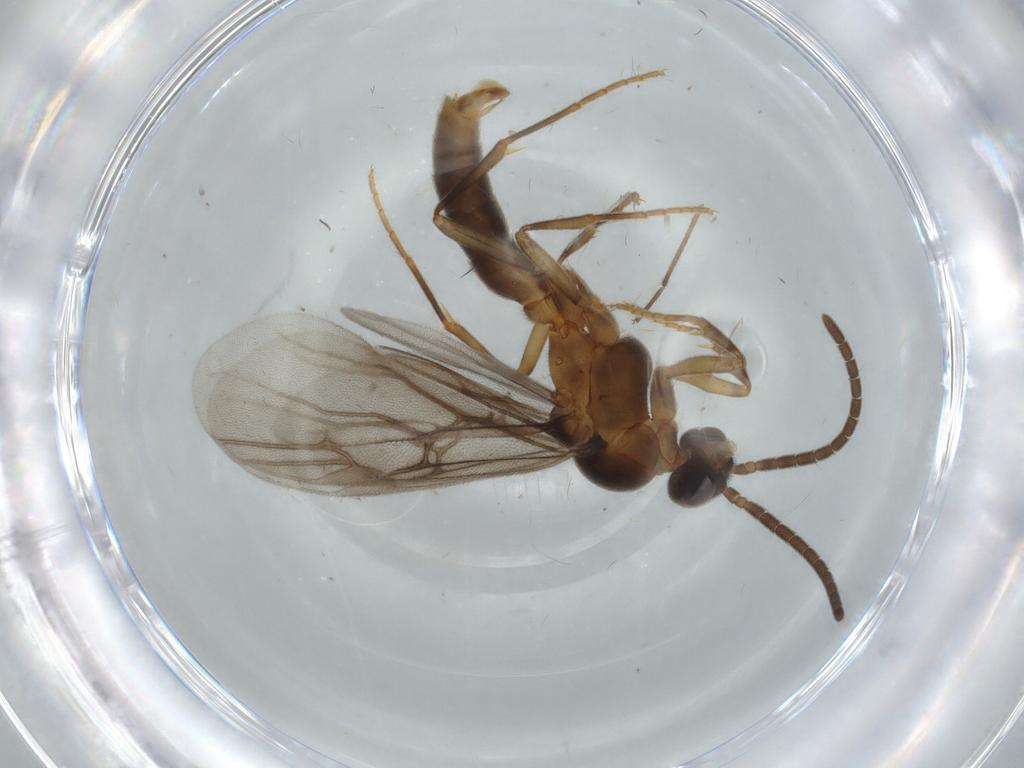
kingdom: Animalia
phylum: Arthropoda
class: Insecta
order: Hymenoptera
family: Formicidae
